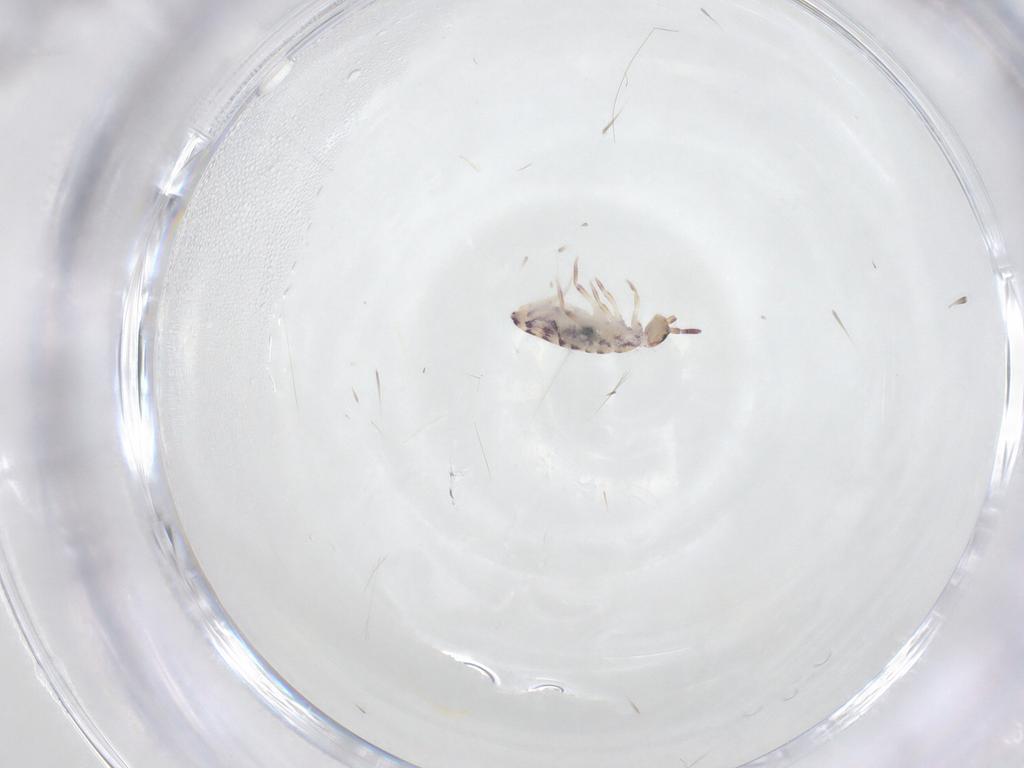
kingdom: Animalia
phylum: Arthropoda
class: Collembola
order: Entomobryomorpha
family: Entomobryidae
